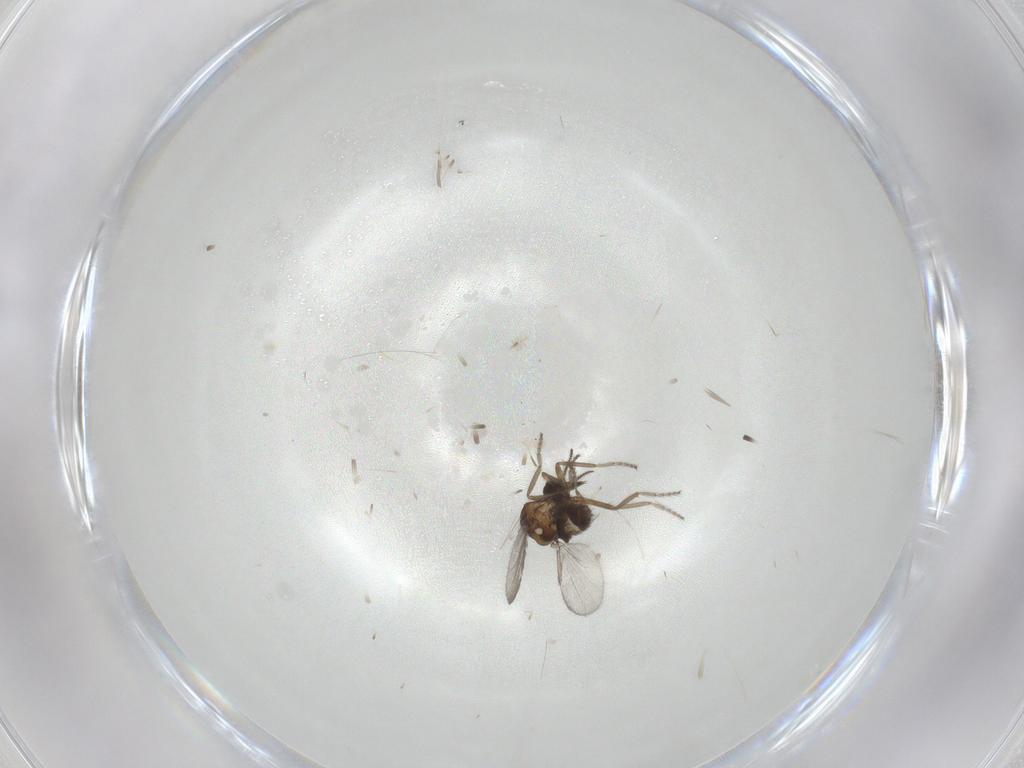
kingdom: Animalia
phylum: Arthropoda
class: Insecta
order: Diptera
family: Ceratopogonidae
